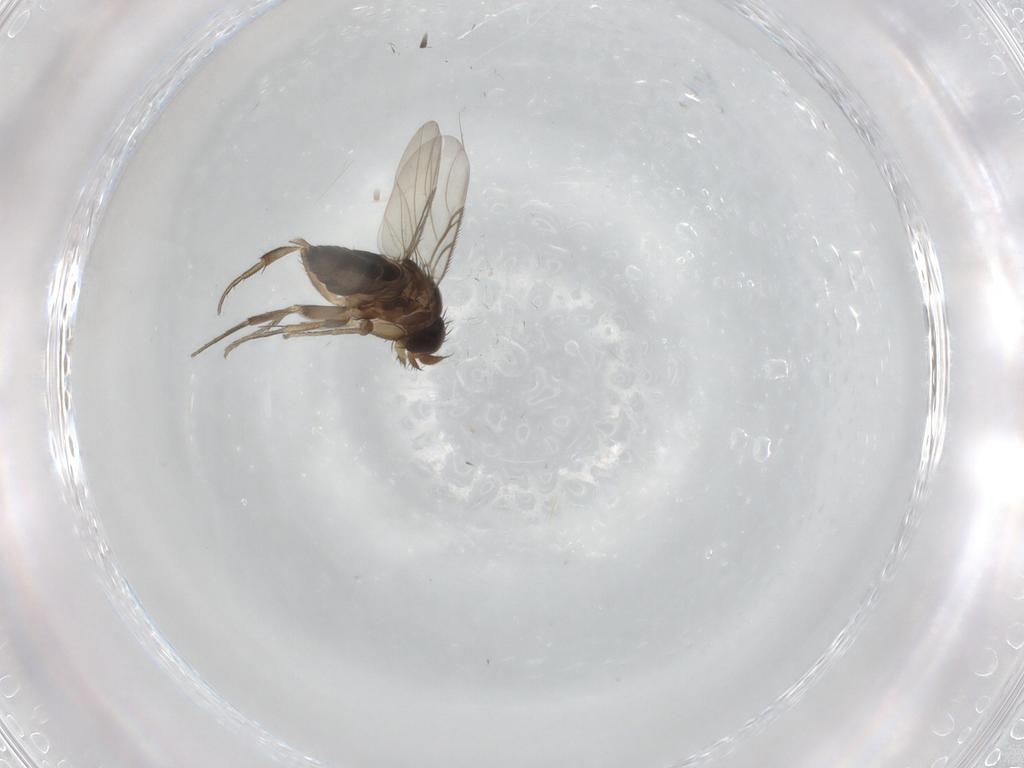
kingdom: Animalia
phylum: Arthropoda
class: Insecta
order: Diptera
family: Phoridae
